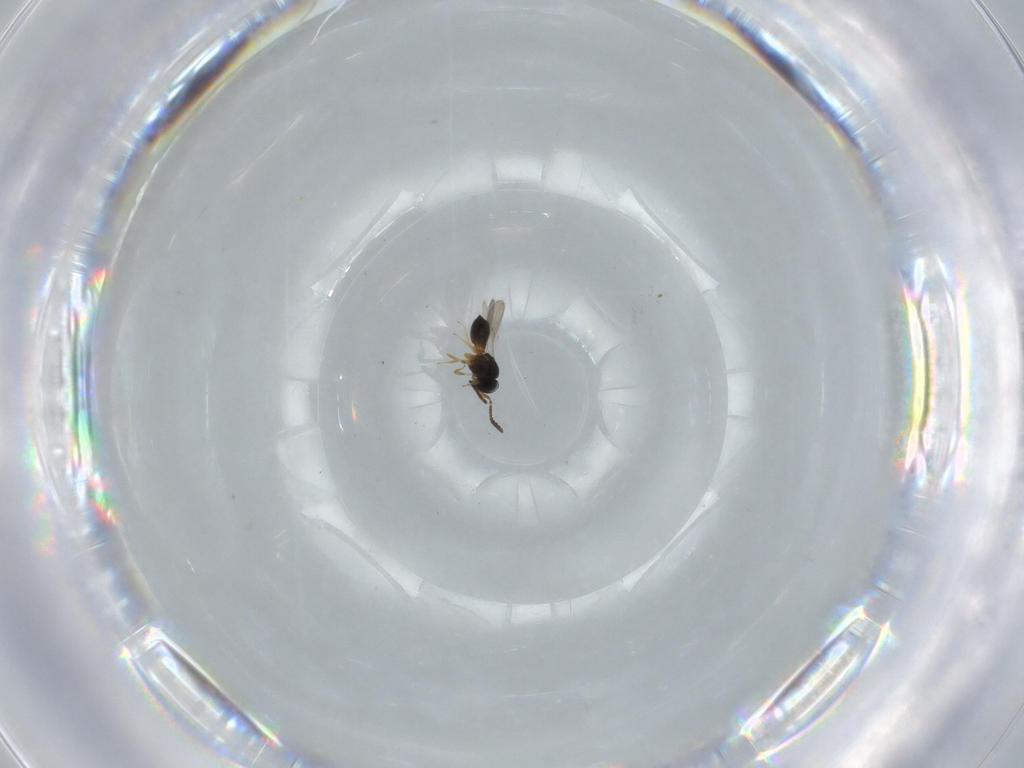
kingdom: Animalia
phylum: Arthropoda
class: Insecta
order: Hymenoptera
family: Scelionidae
